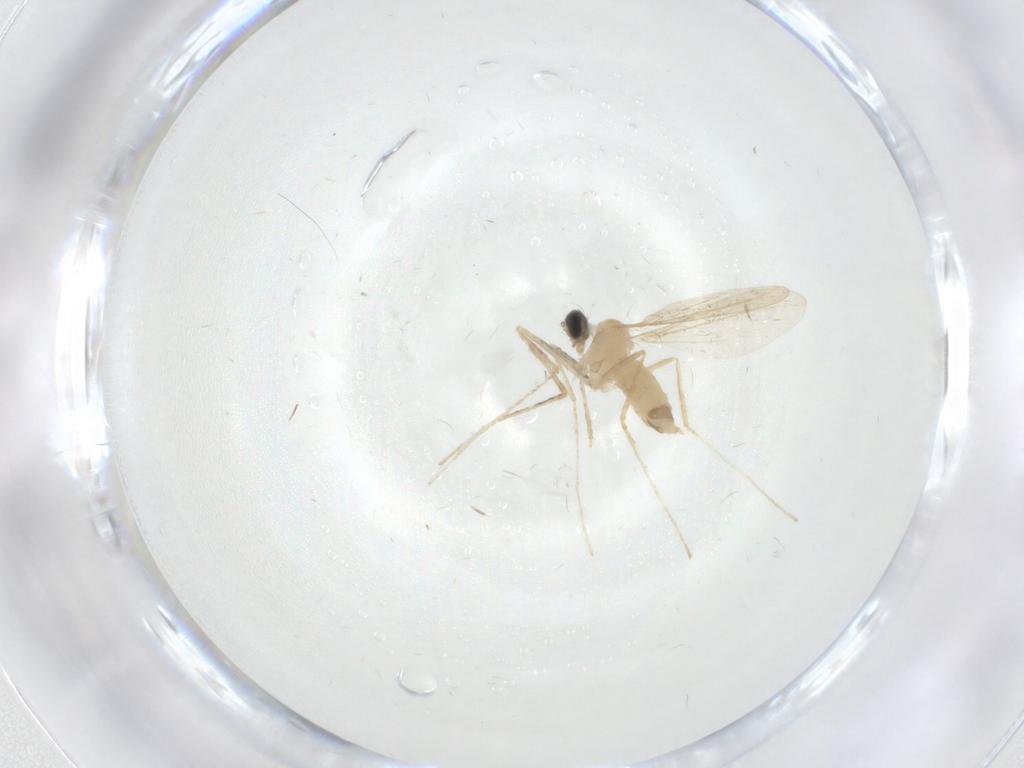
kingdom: Animalia
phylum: Arthropoda
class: Insecta
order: Diptera
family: Cecidomyiidae
